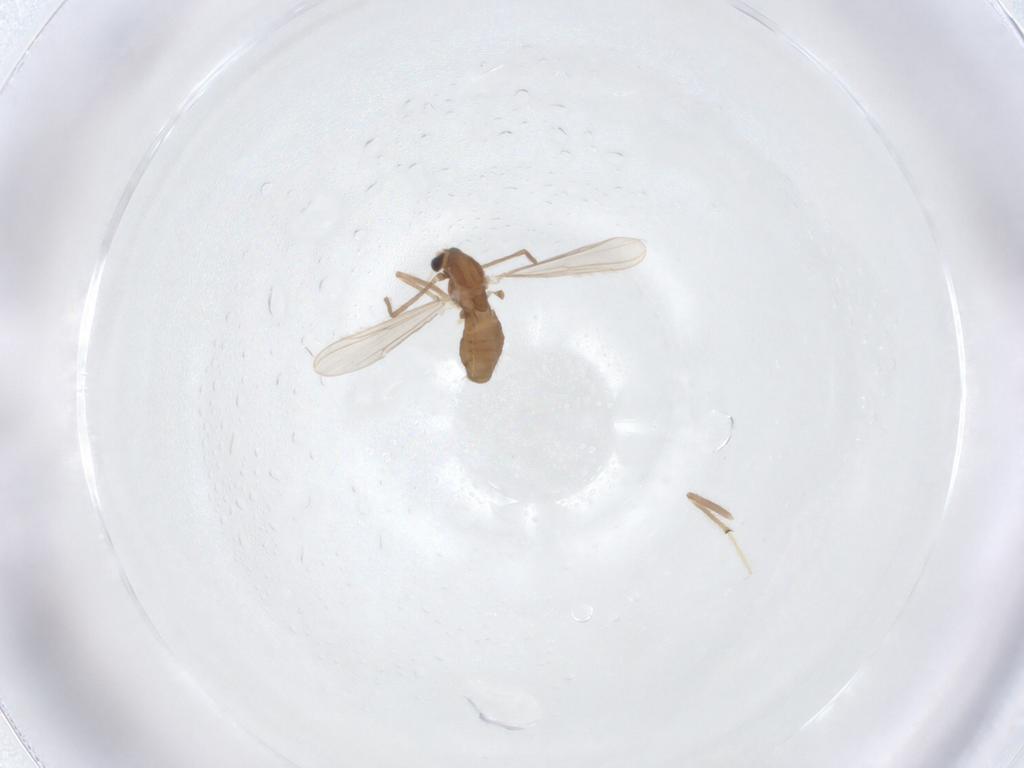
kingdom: Animalia
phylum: Arthropoda
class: Insecta
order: Diptera
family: Chironomidae
